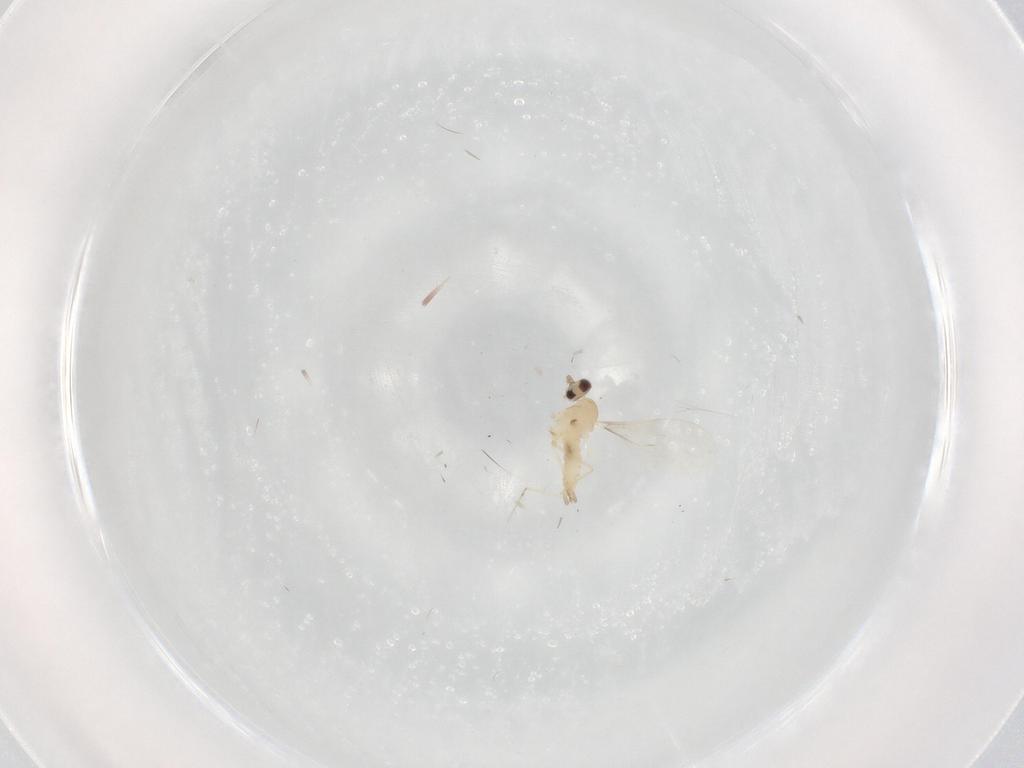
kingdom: Animalia
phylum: Arthropoda
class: Insecta
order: Diptera
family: Cecidomyiidae
